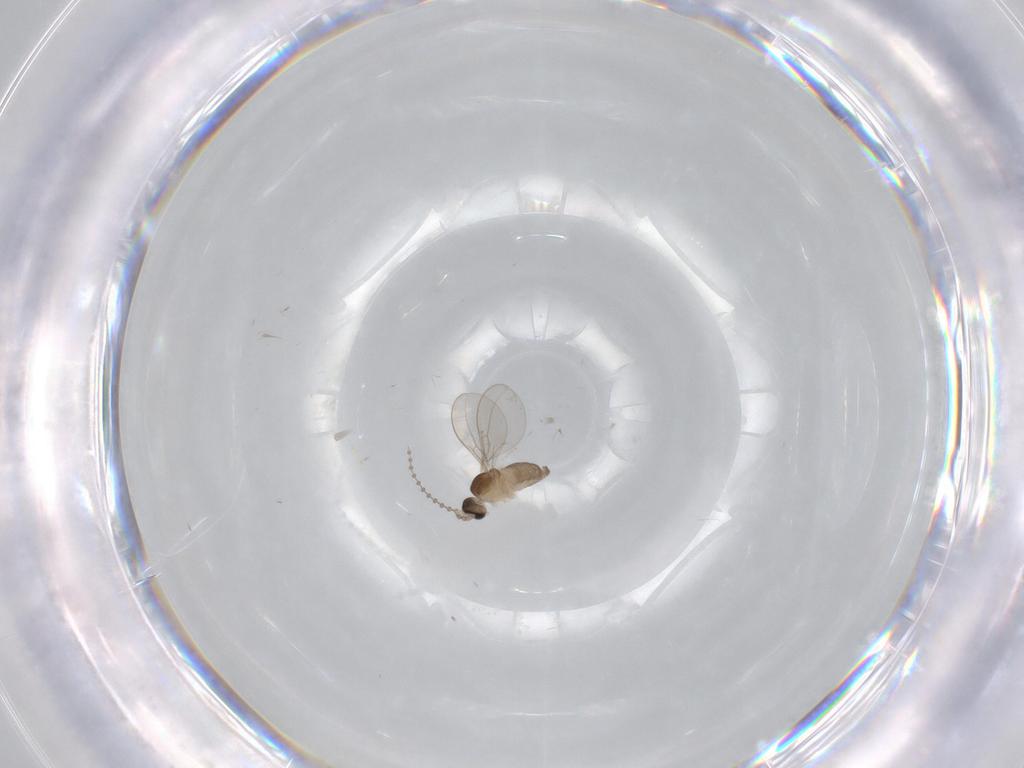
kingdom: Animalia
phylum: Arthropoda
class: Insecta
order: Diptera
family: Cecidomyiidae
